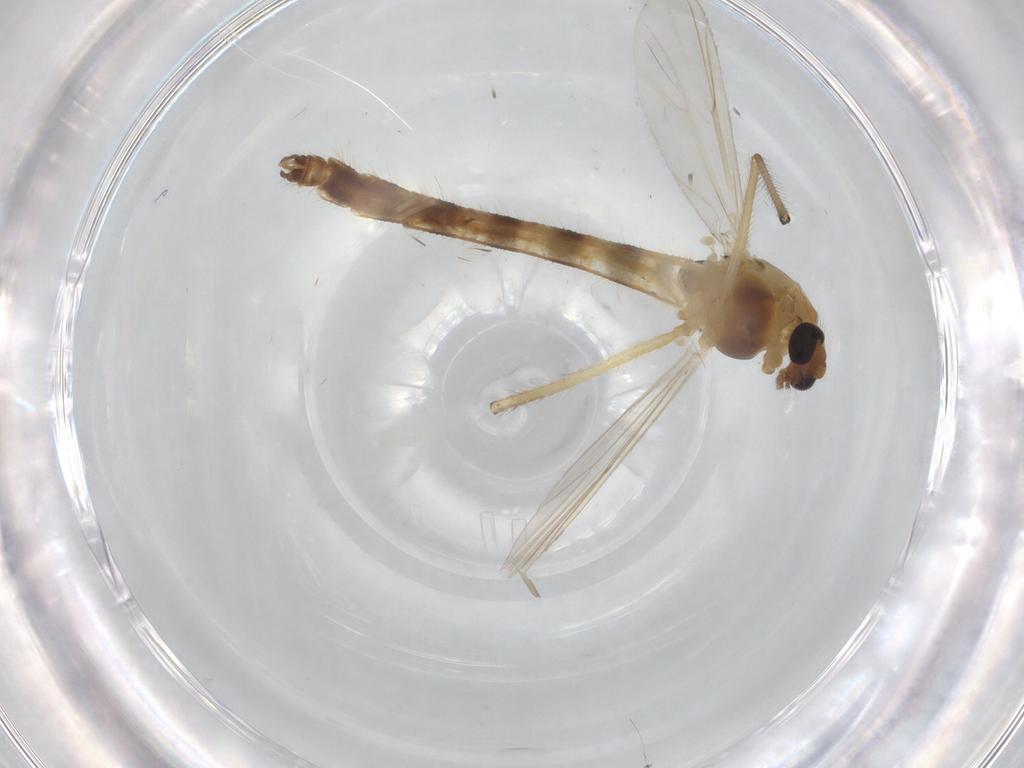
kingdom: Animalia
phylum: Arthropoda
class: Insecta
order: Diptera
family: Chironomidae
